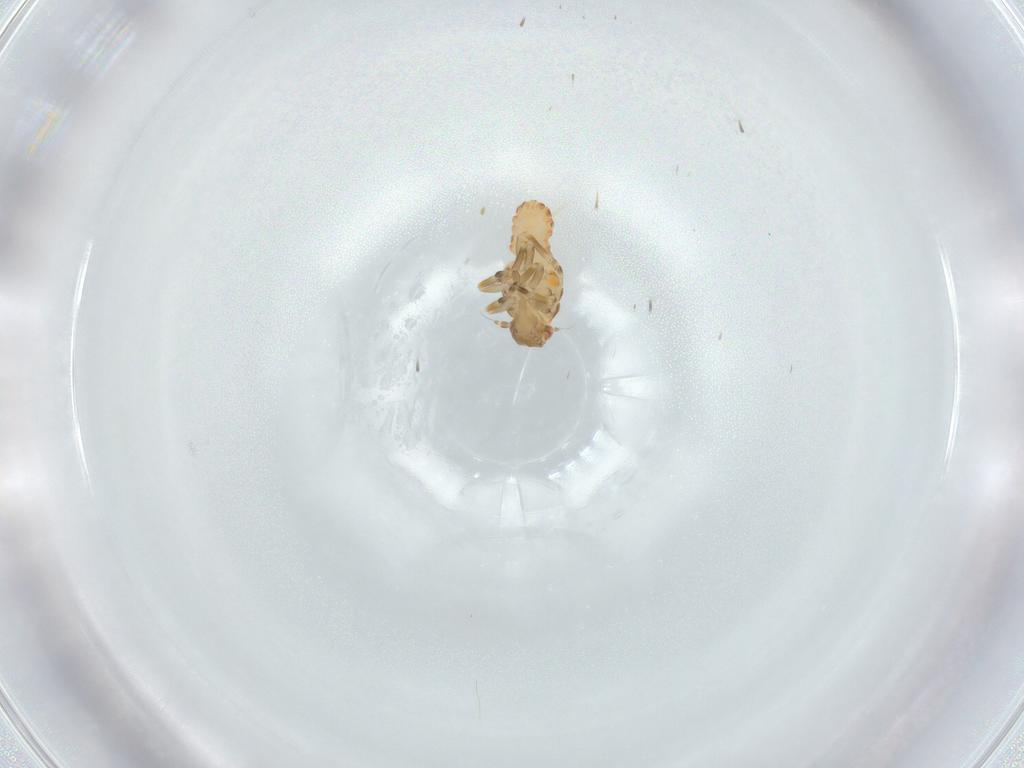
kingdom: Animalia
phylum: Arthropoda
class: Insecta
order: Hemiptera
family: Flatidae
